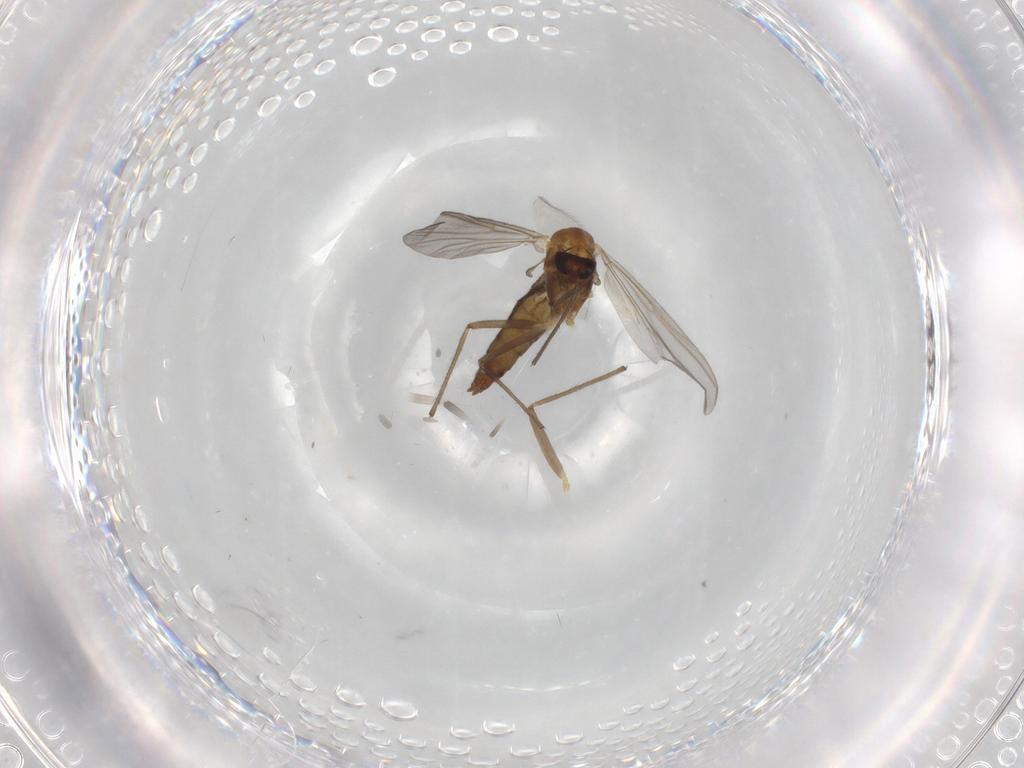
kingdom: Animalia
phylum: Arthropoda
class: Insecta
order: Diptera
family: Chironomidae
